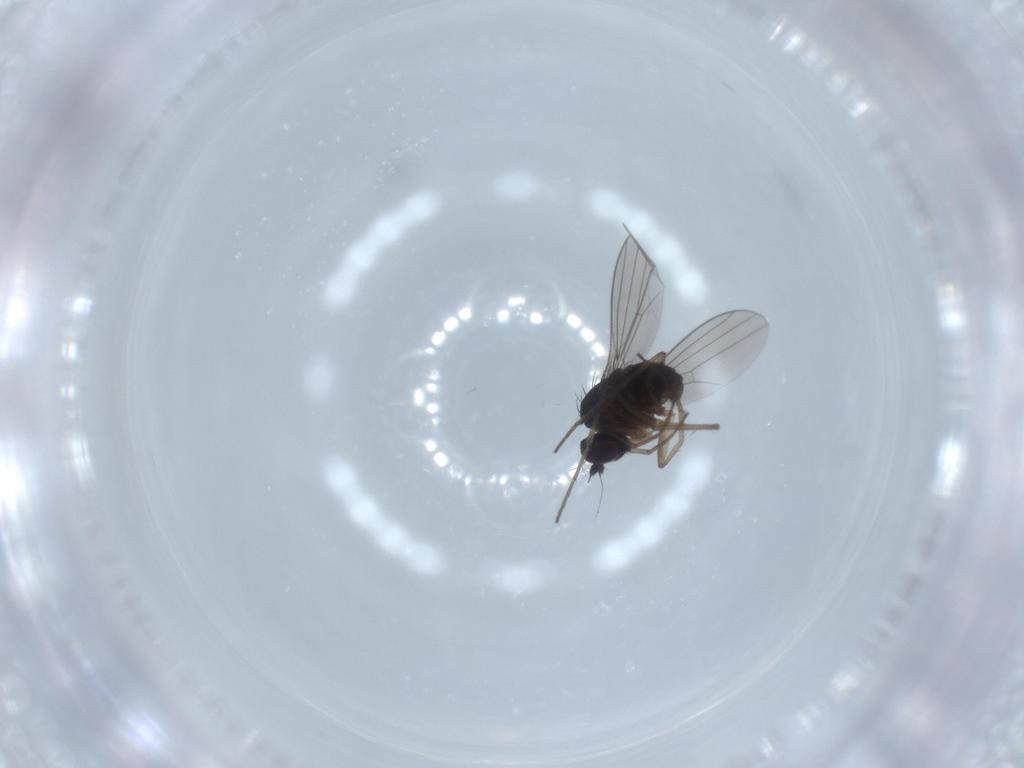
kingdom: Animalia
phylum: Arthropoda
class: Insecta
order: Diptera
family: Dolichopodidae
